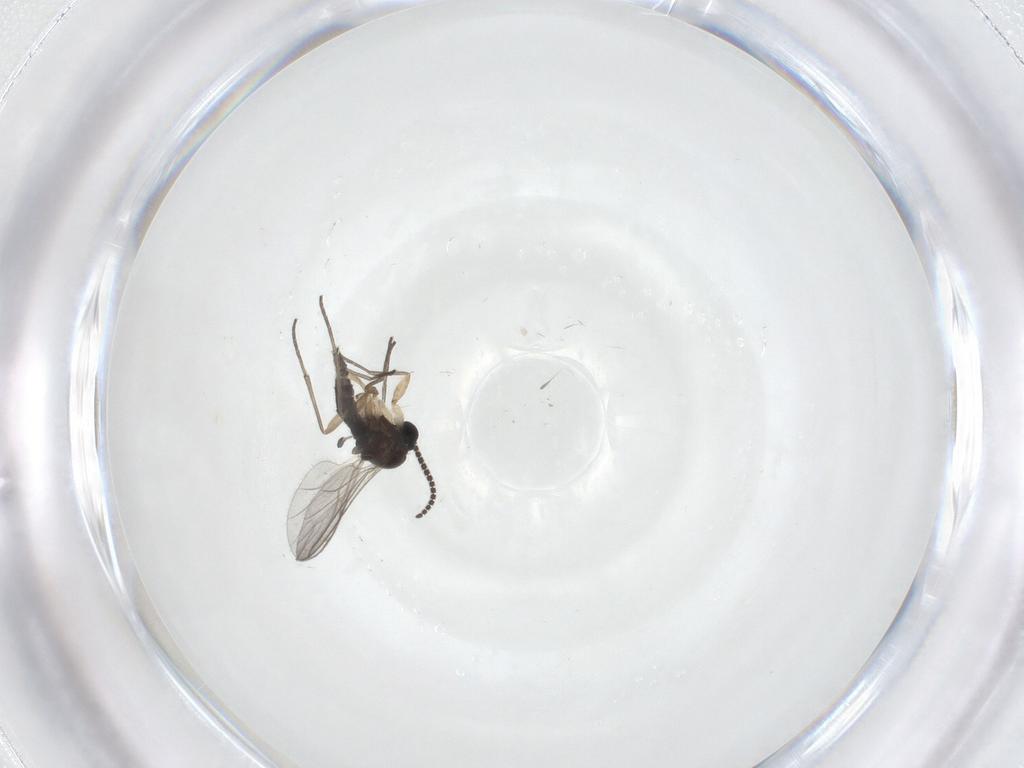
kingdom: Animalia
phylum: Arthropoda
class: Insecta
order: Diptera
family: Sciaridae
